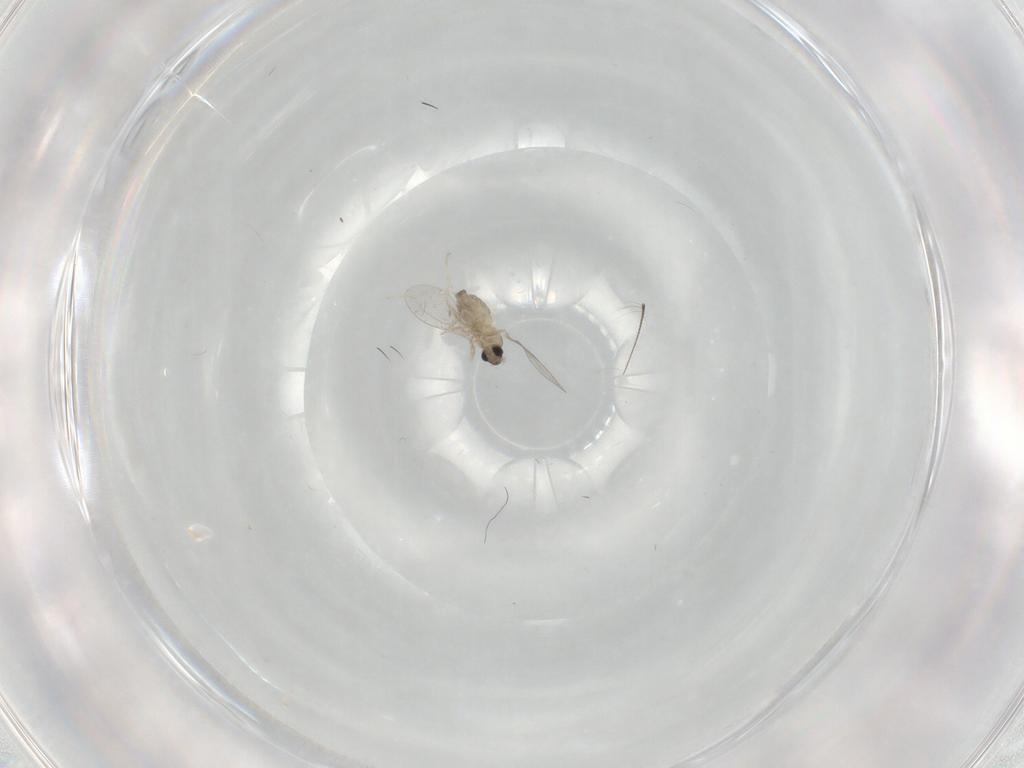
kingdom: Animalia
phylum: Arthropoda
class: Insecta
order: Diptera
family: Cecidomyiidae
